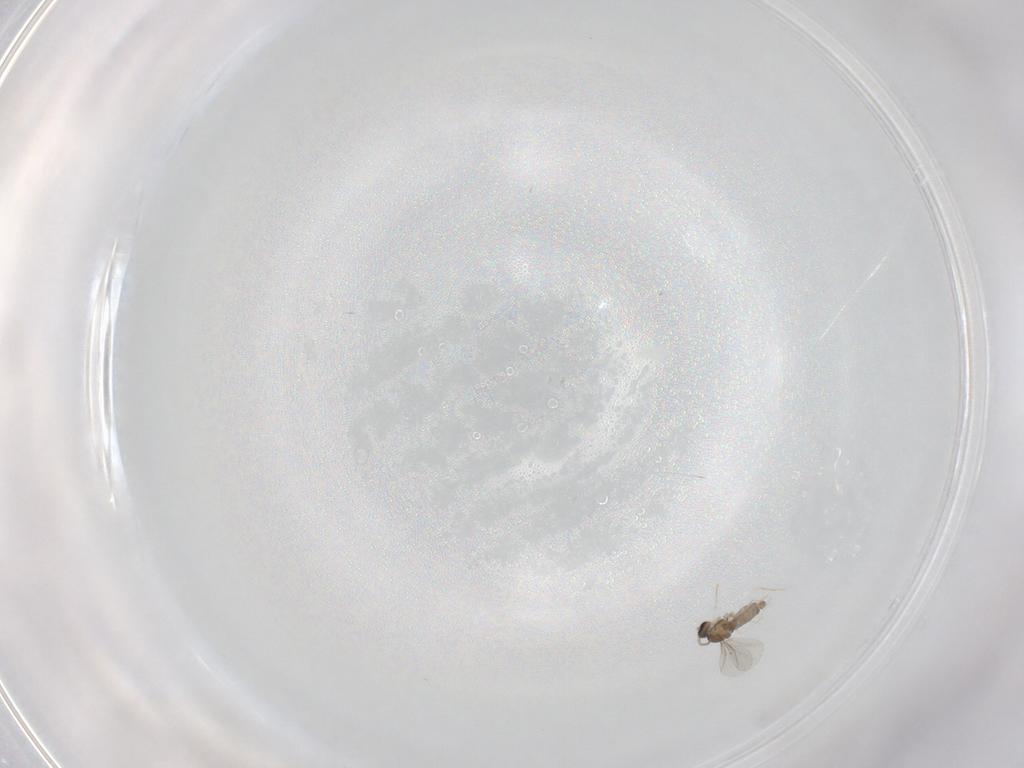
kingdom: Animalia
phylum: Arthropoda
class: Insecta
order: Diptera
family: Cecidomyiidae
